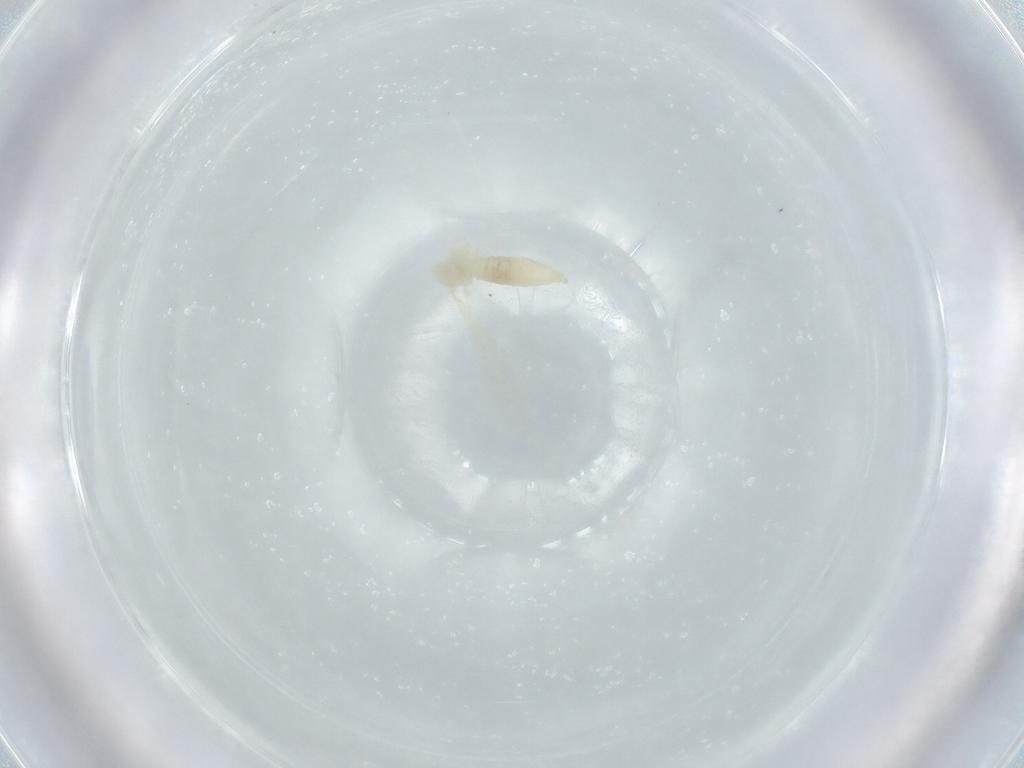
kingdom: Animalia
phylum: Arthropoda
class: Insecta
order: Diptera
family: Cecidomyiidae
